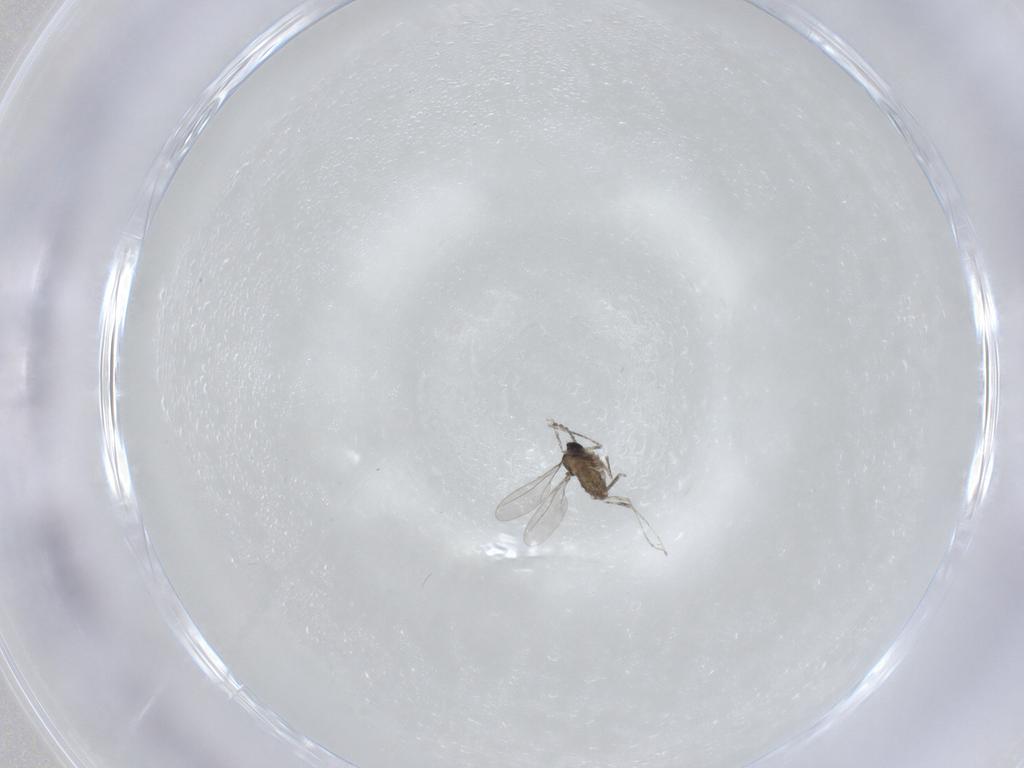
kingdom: Animalia
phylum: Arthropoda
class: Insecta
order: Diptera
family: Cecidomyiidae
